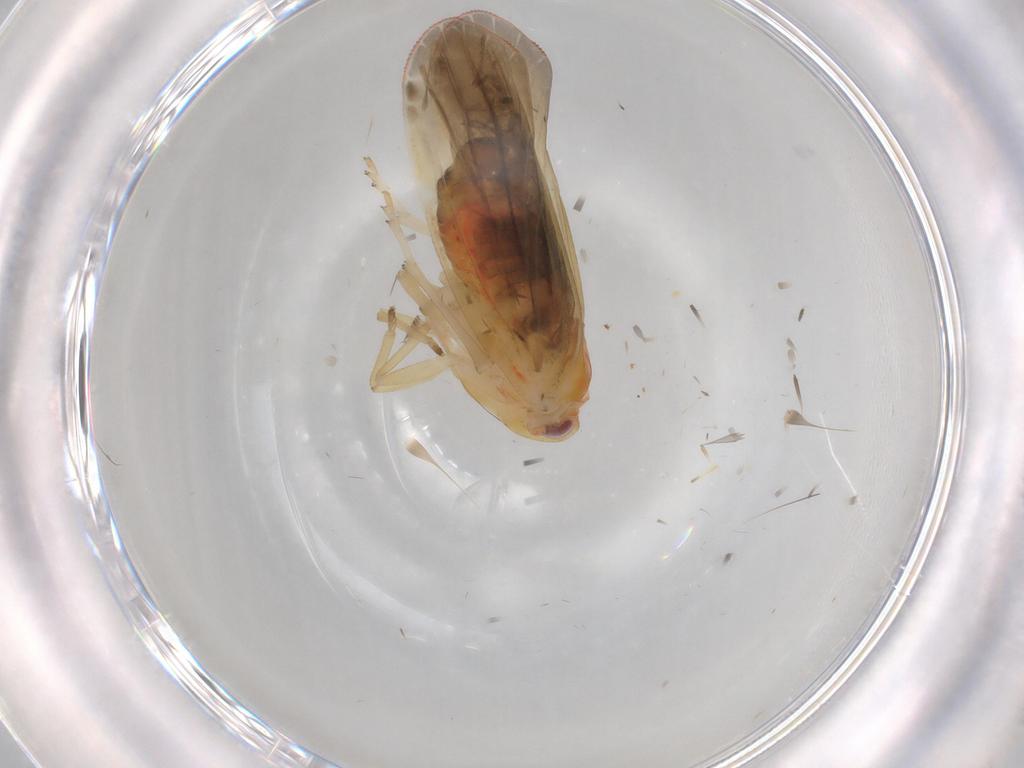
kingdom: Animalia
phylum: Arthropoda
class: Insecta
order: Hemiptera
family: Derbidae
